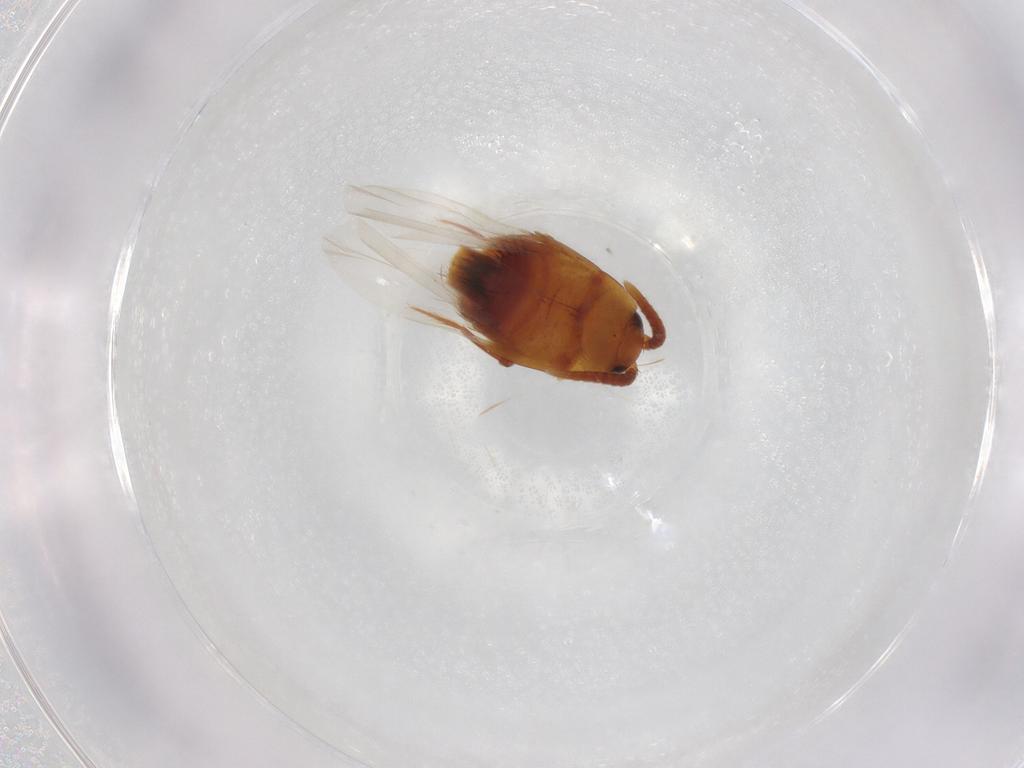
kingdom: Animalia
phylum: Arthropoda
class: Insecta
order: Coleoptera
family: Staphylinidae
